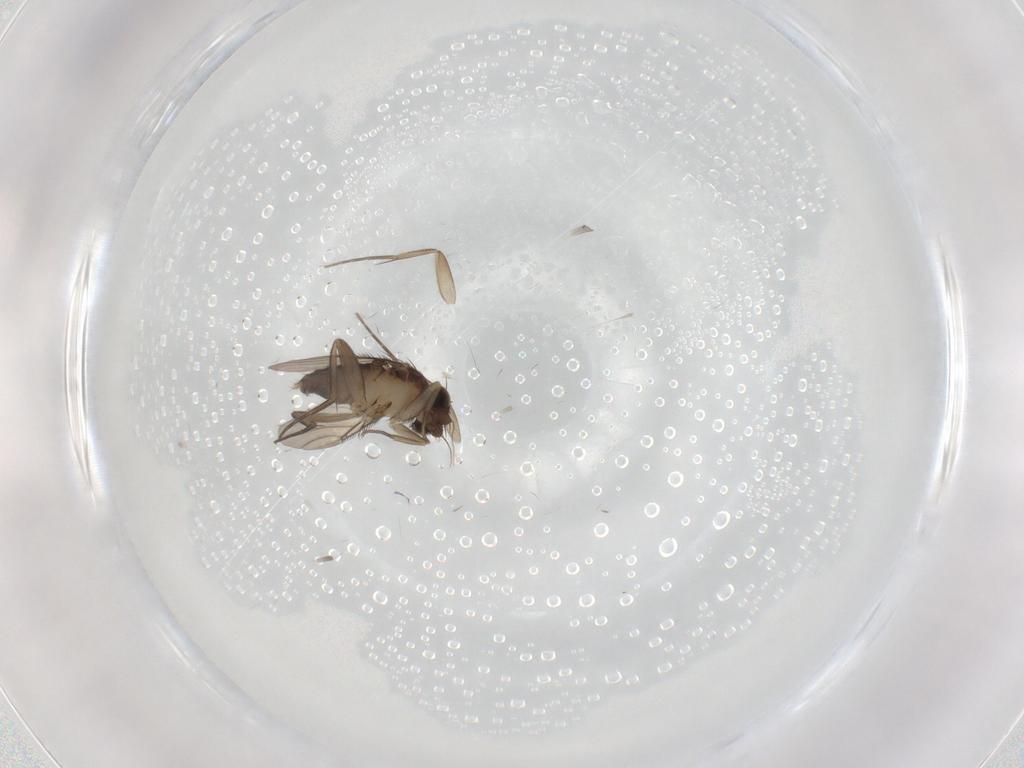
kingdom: Animalia
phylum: Arthropoda
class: Insecta
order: Diptera
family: Phoridae
